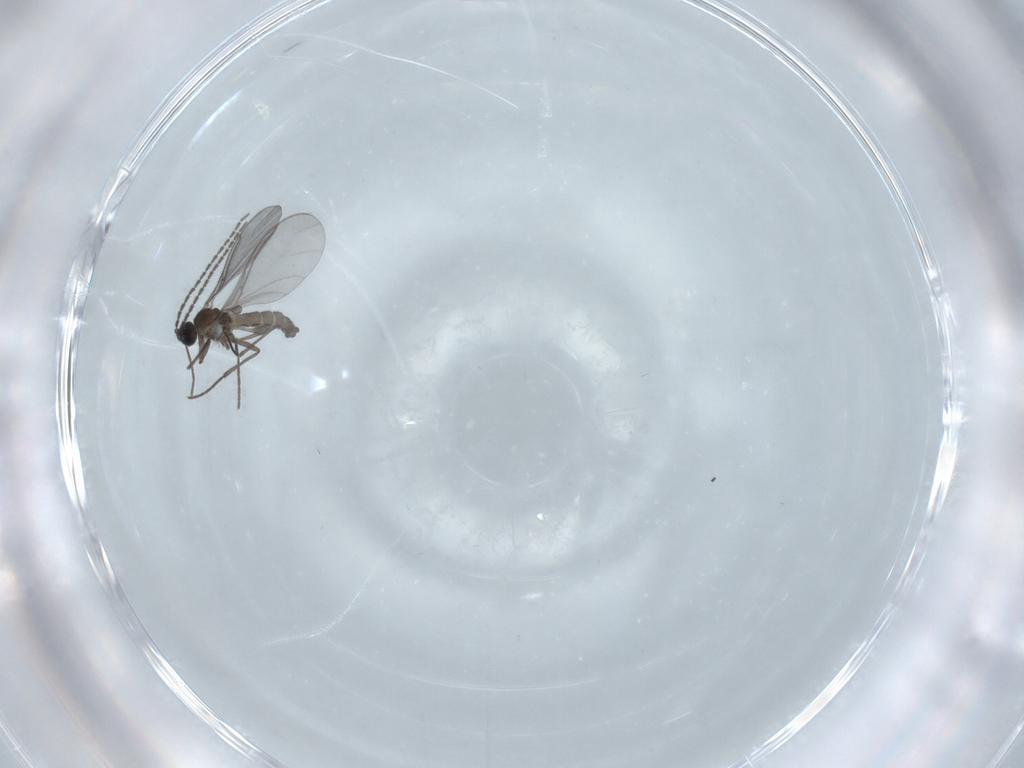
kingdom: Animalia
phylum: Arthropoda
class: Insecta
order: Diptera
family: Sciaridae
